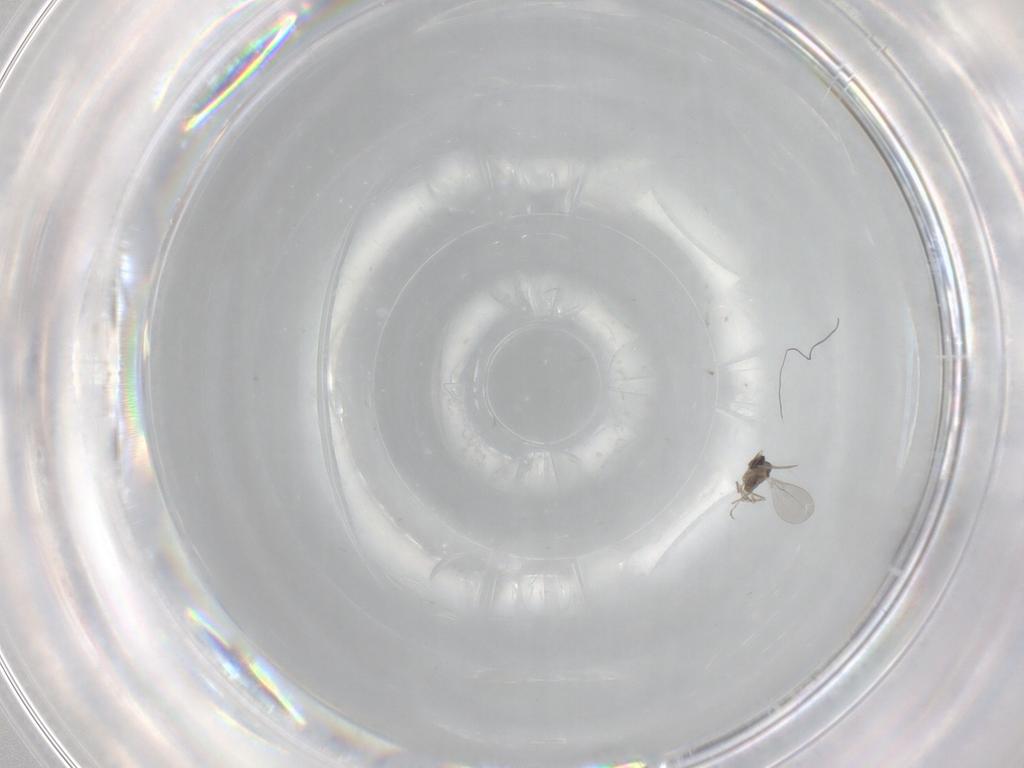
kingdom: Animalia
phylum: Arthropoda
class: Insecta
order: Diptera
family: Cecidomyiidae
